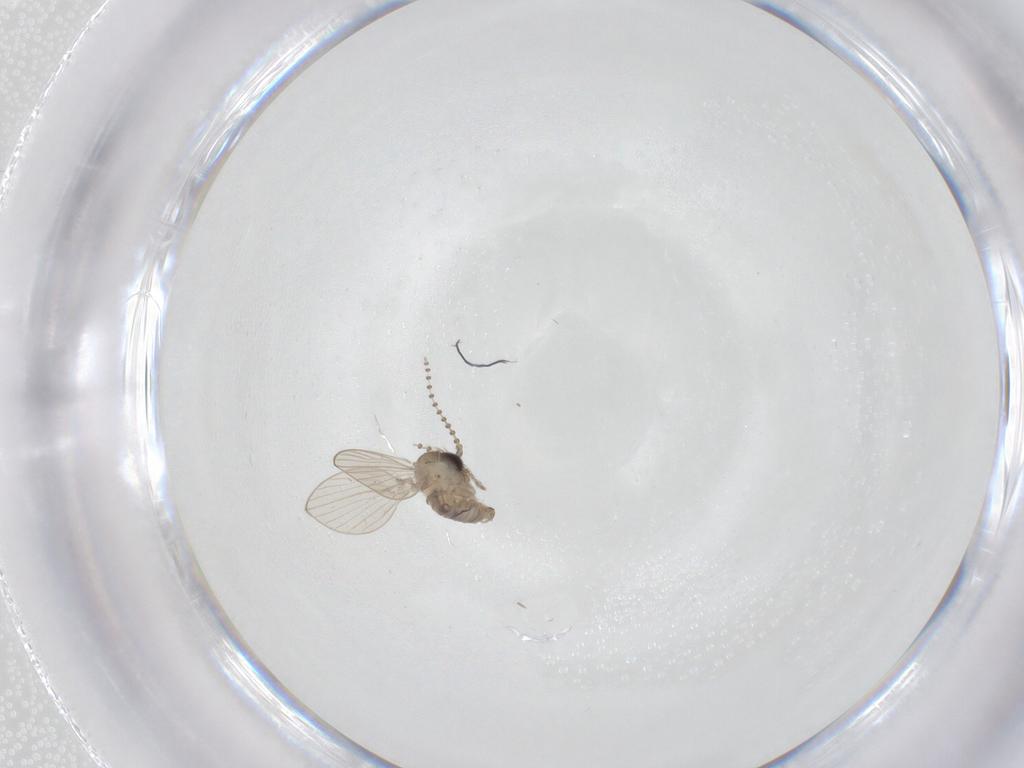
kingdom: Animalia
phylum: Arthropoda
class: Insecta
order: Diptera
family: Psychodidae
